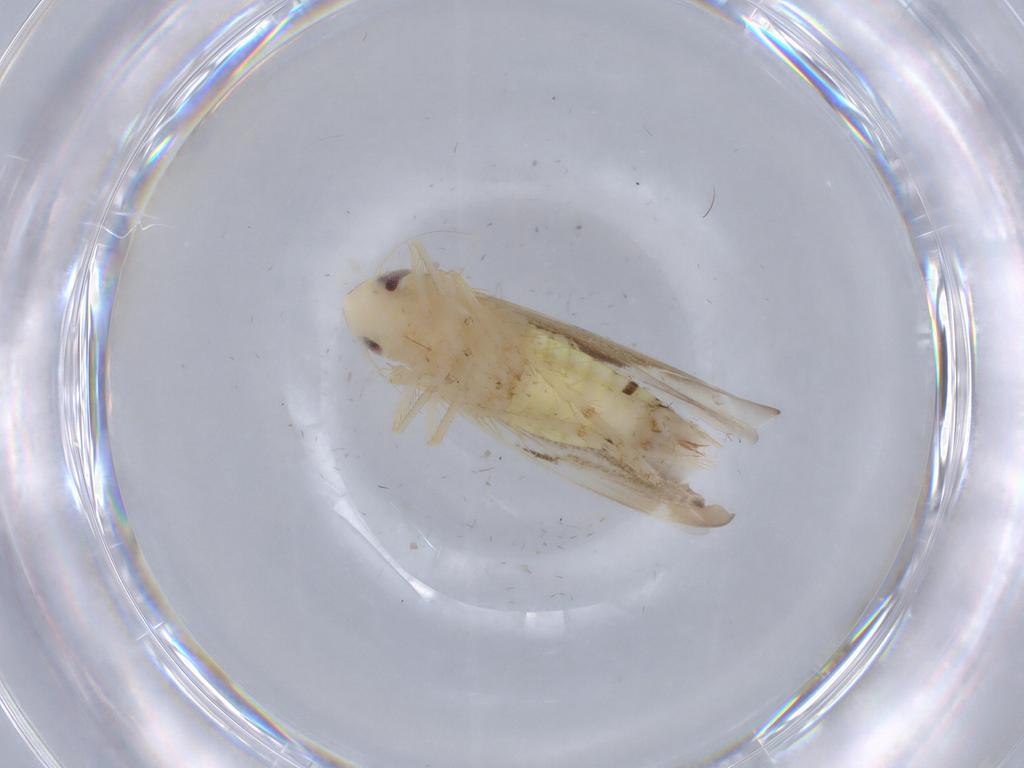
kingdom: Animalia
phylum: Arthropoda
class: Insecta
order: Hemiptera
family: Cicadellidae
